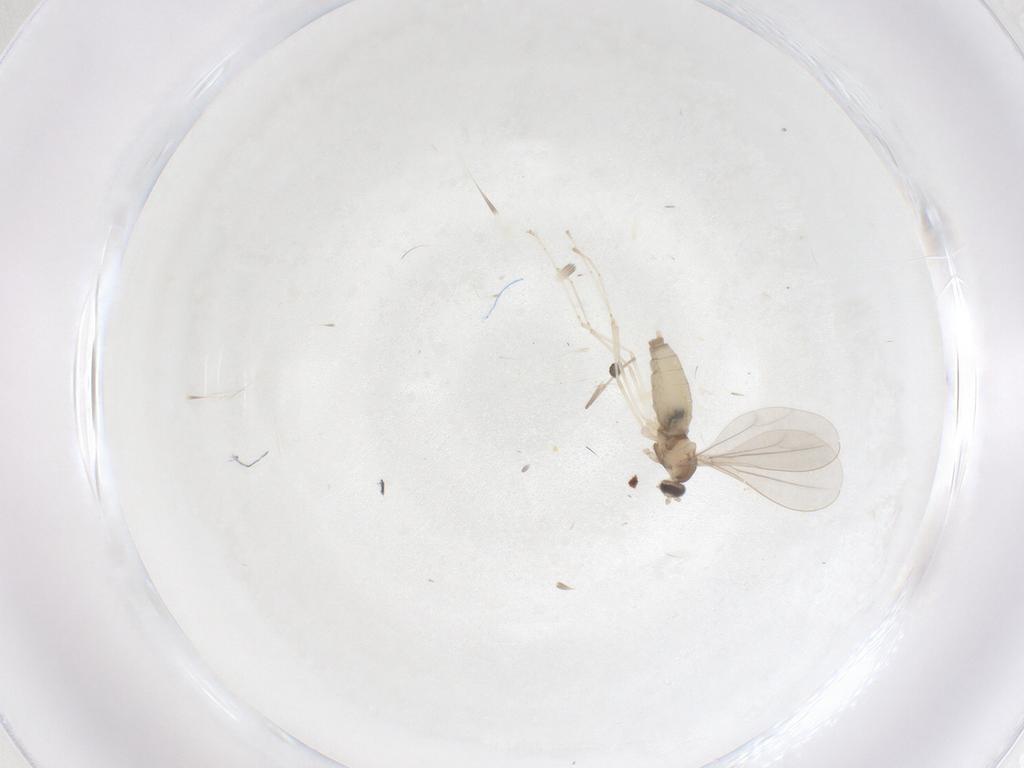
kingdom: Animalia
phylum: Arthropoda
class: Insecta
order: Diptera
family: Cecidomyiidae
